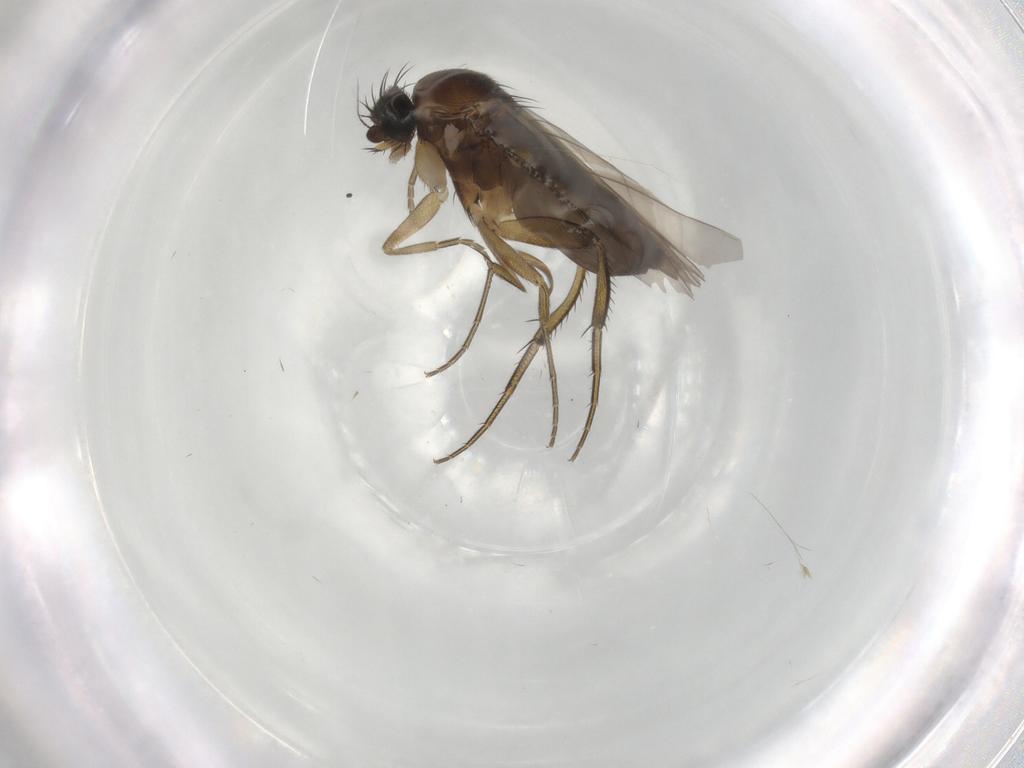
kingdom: Animalia
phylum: Arthropoda
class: Insecta
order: Diptera
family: Phoridae
